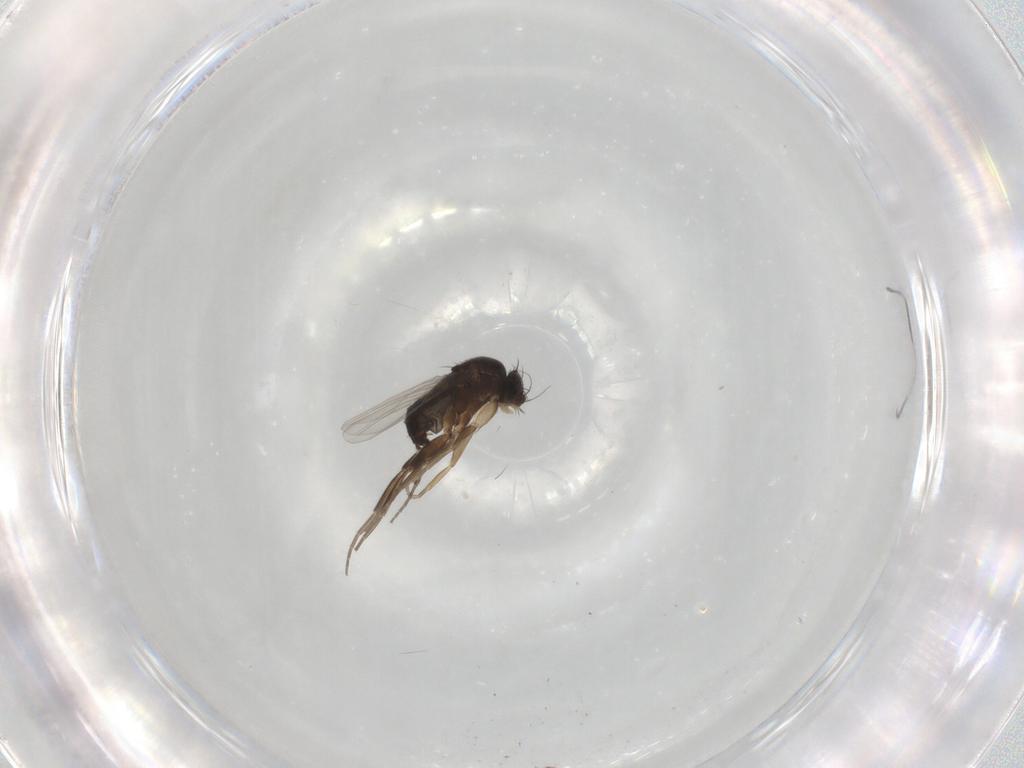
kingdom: Animalia
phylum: Arthropoda
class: Insecta
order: Diptera
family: Phoridae
